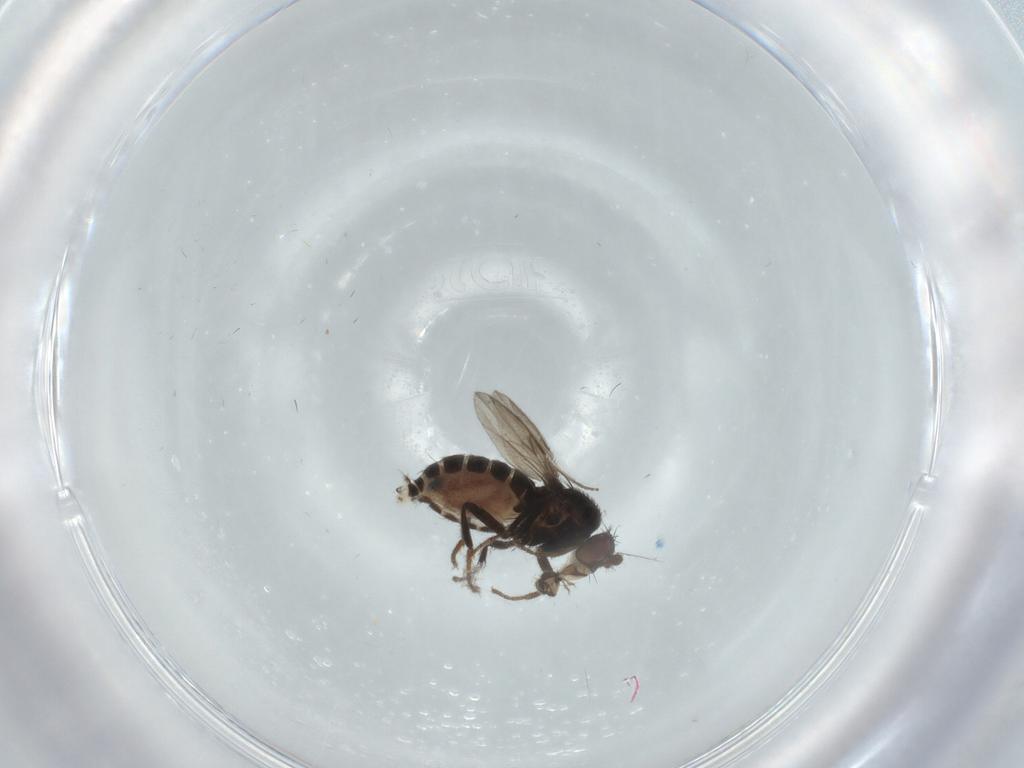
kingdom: Animalia
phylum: Arthropoda
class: Insecta
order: Diptera
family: Sphaeroceridae
